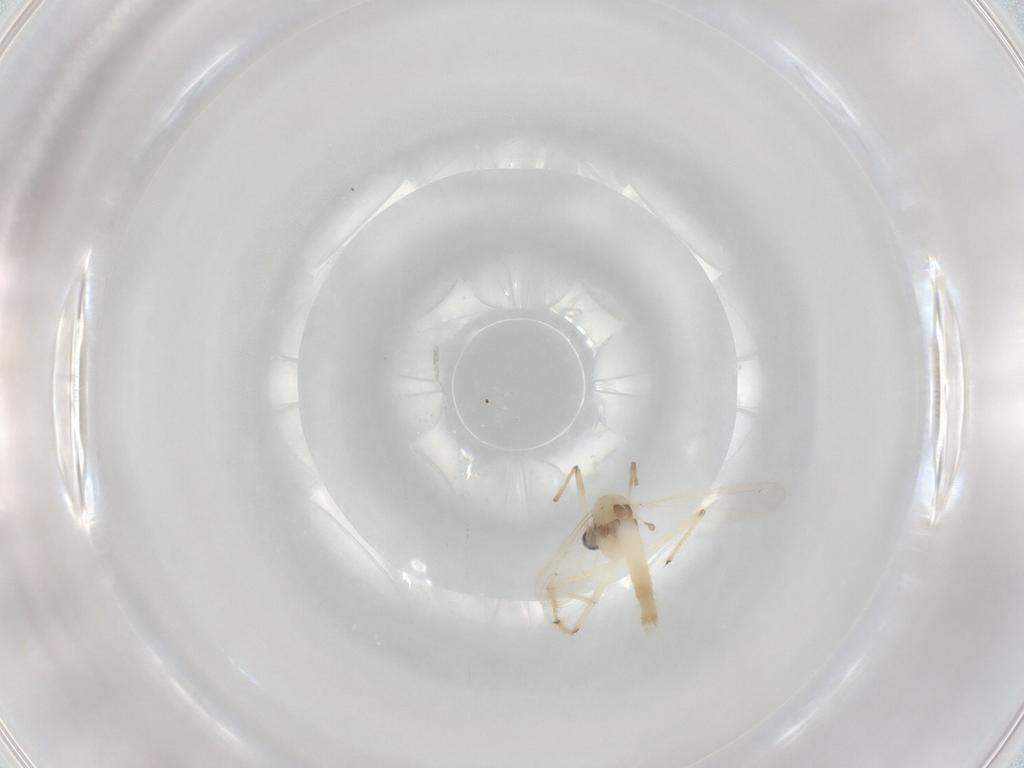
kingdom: Animalia
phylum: Arthropoda
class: Insecta
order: Diptera
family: Chironomidae
